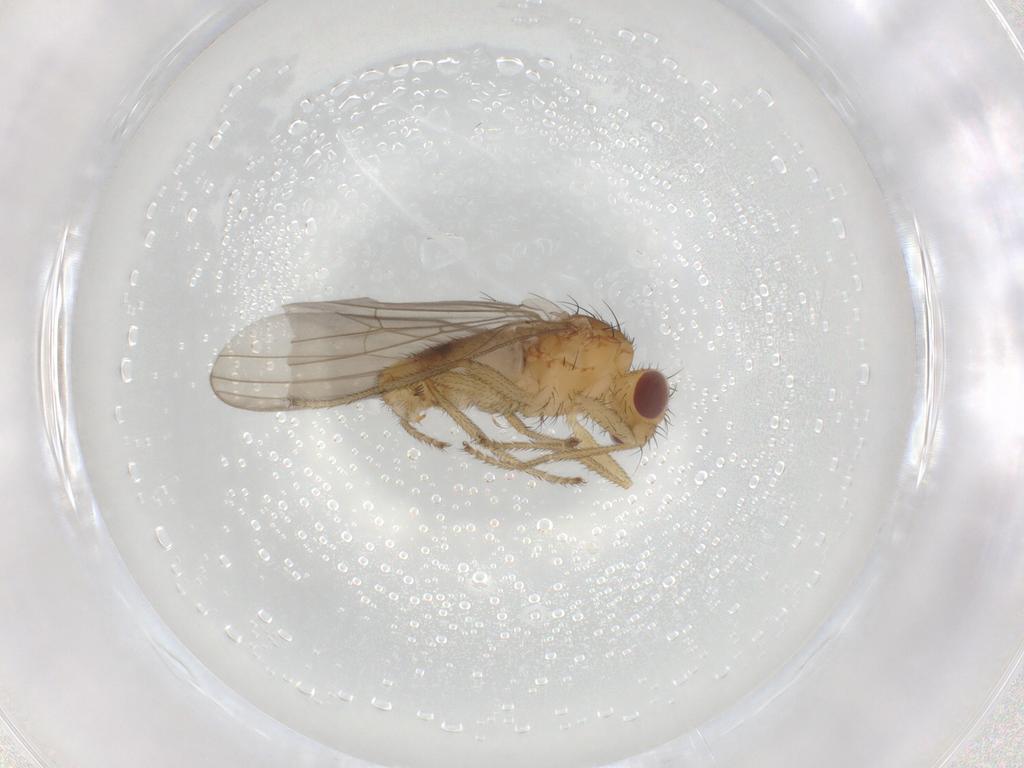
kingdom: Animalia
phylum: Arthropoda
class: Insecta
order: Diptera
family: Natalimyzidae
